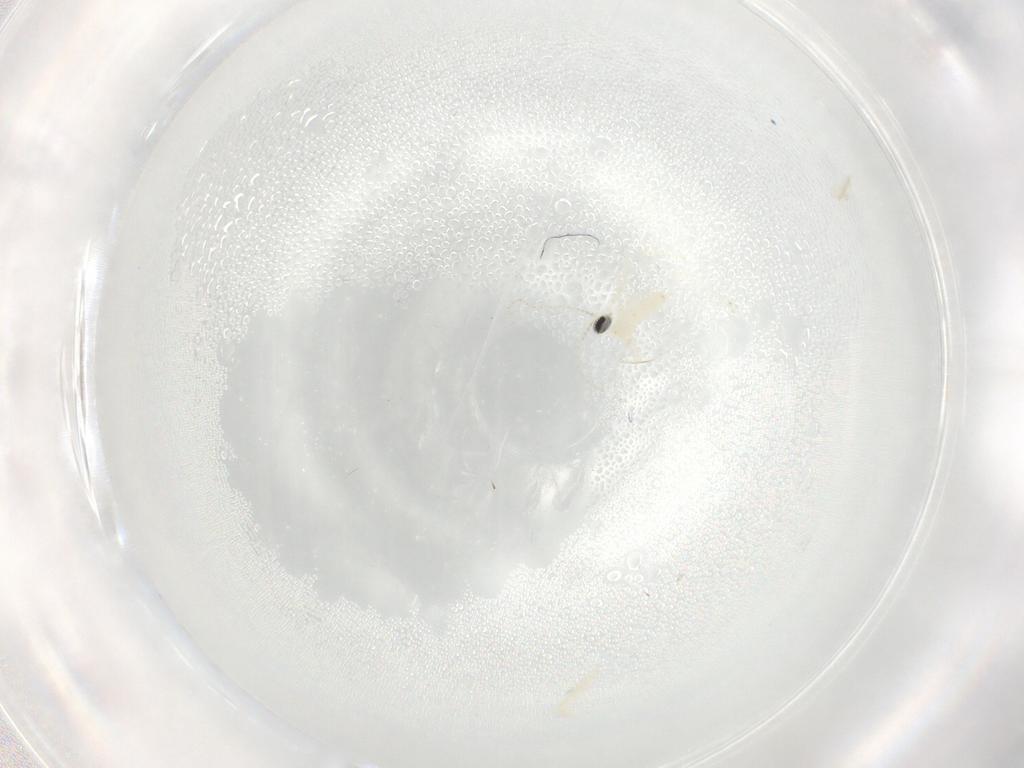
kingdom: Animalia
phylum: Arthropoda
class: Insecta
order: Diptera
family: Cecidomyiidae
